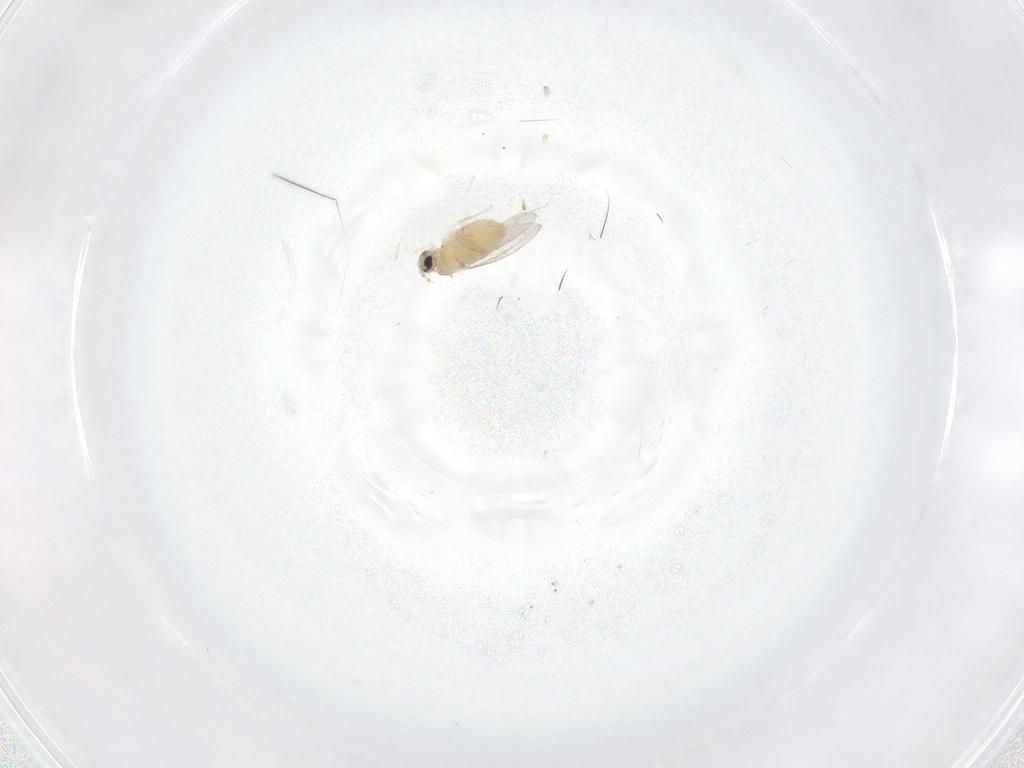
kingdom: Animalia
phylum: Arthropoda
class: Insecta
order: Diptera
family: Cecidomyiidae
